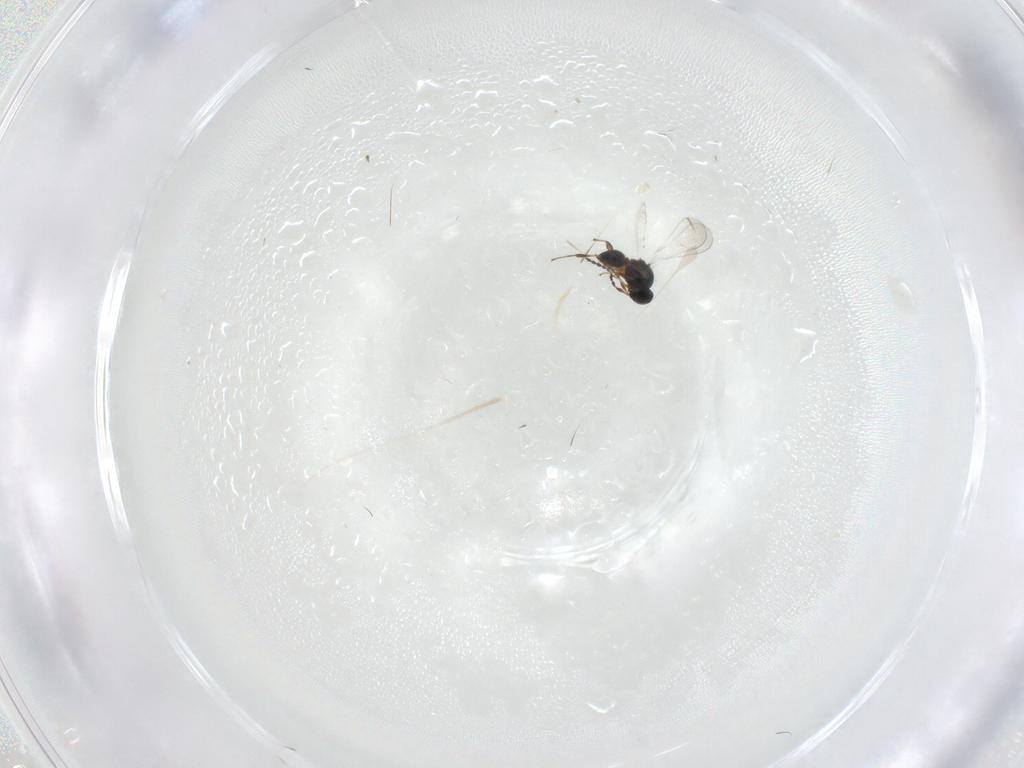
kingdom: Animalia
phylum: Arthropoda
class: Insecta
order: Hymenoptera
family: Platygastridae
